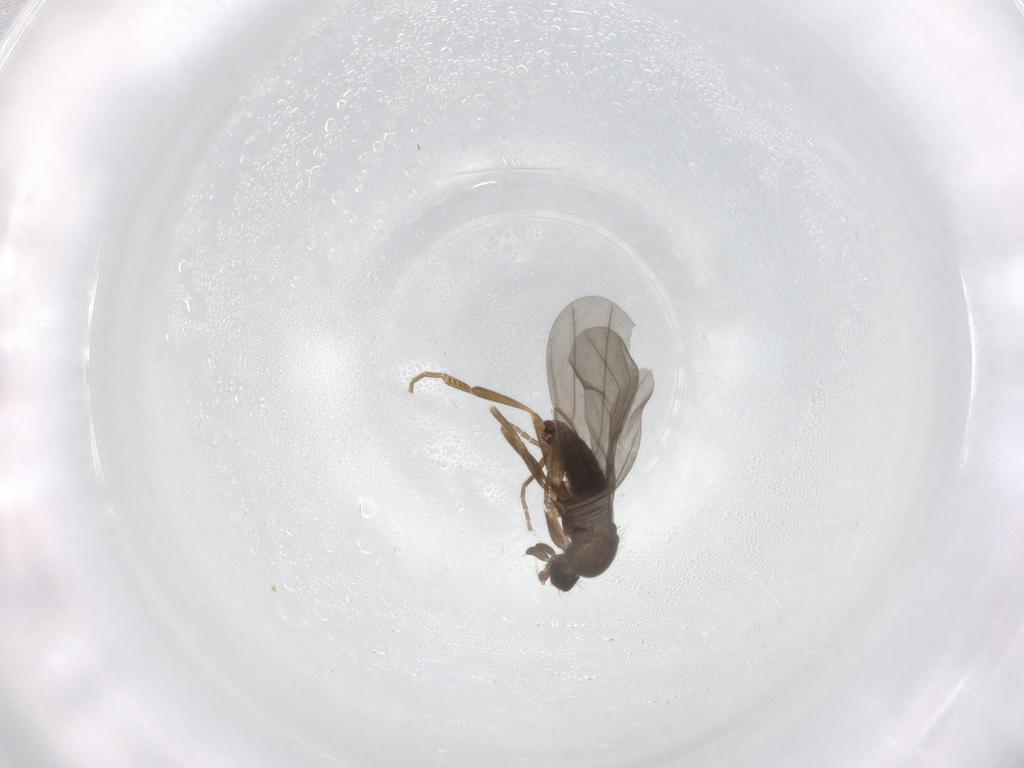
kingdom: Animalia
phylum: Arthropoda
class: Insecta
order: Diptera
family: Phoridae
